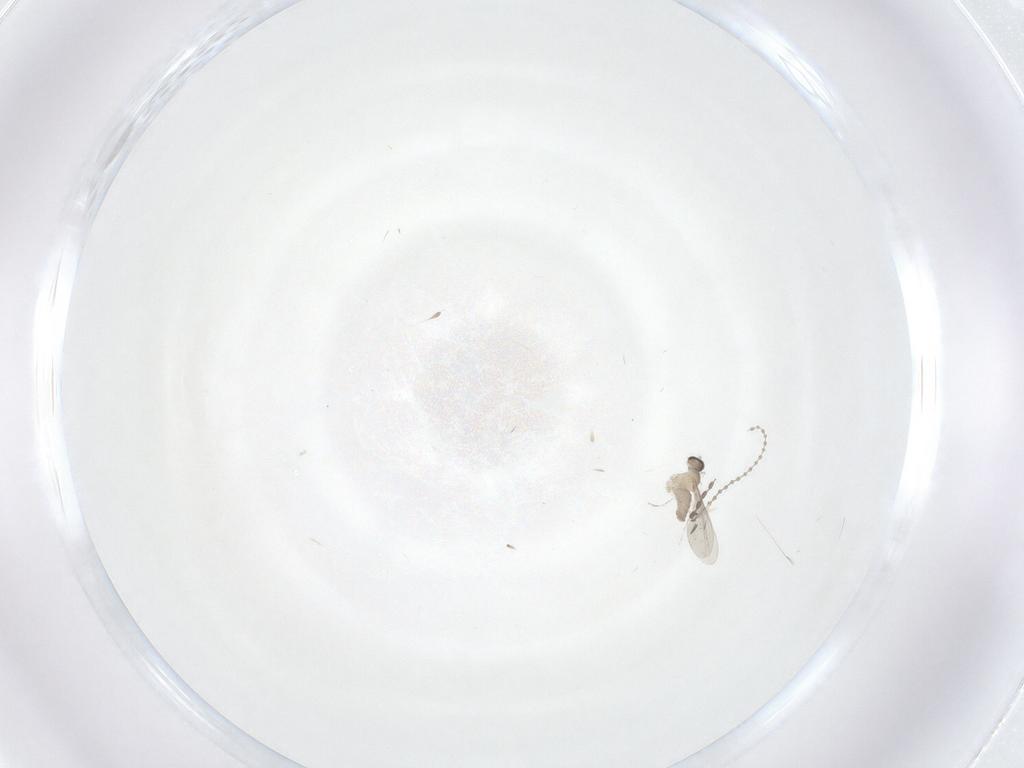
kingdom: Animalia
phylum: Arthropoda
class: Insecta
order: Diptera
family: Cecidomyiidae
